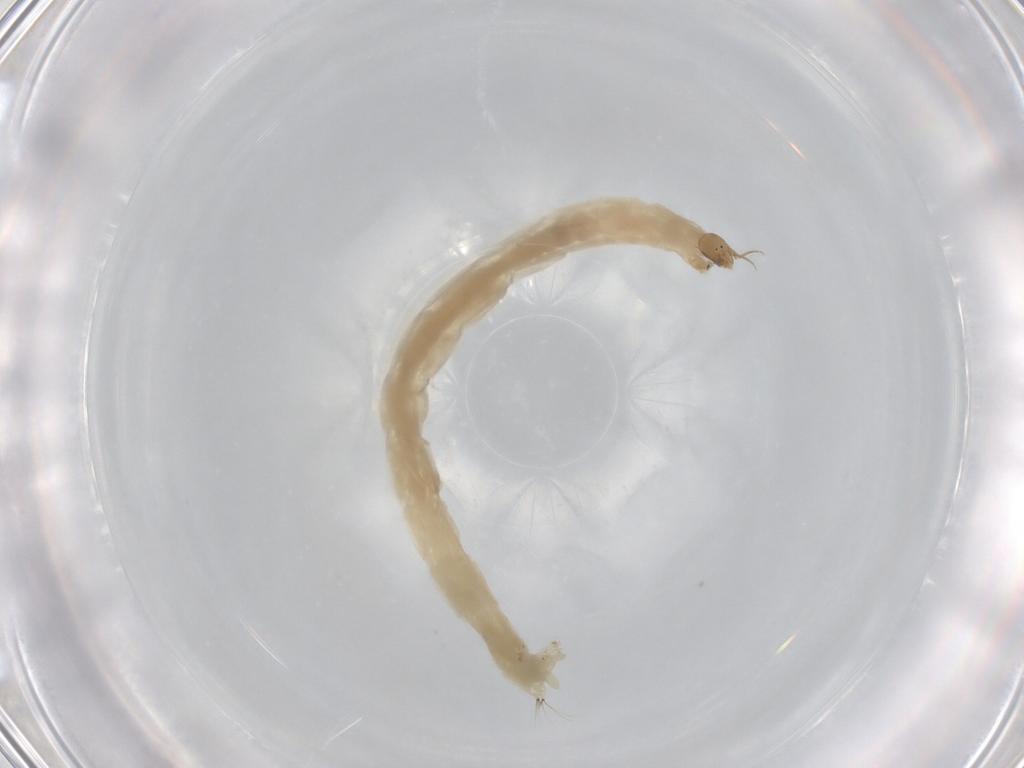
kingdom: Animalia
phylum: Arthropoda
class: Insecta
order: Diptera
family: Chironomidae
